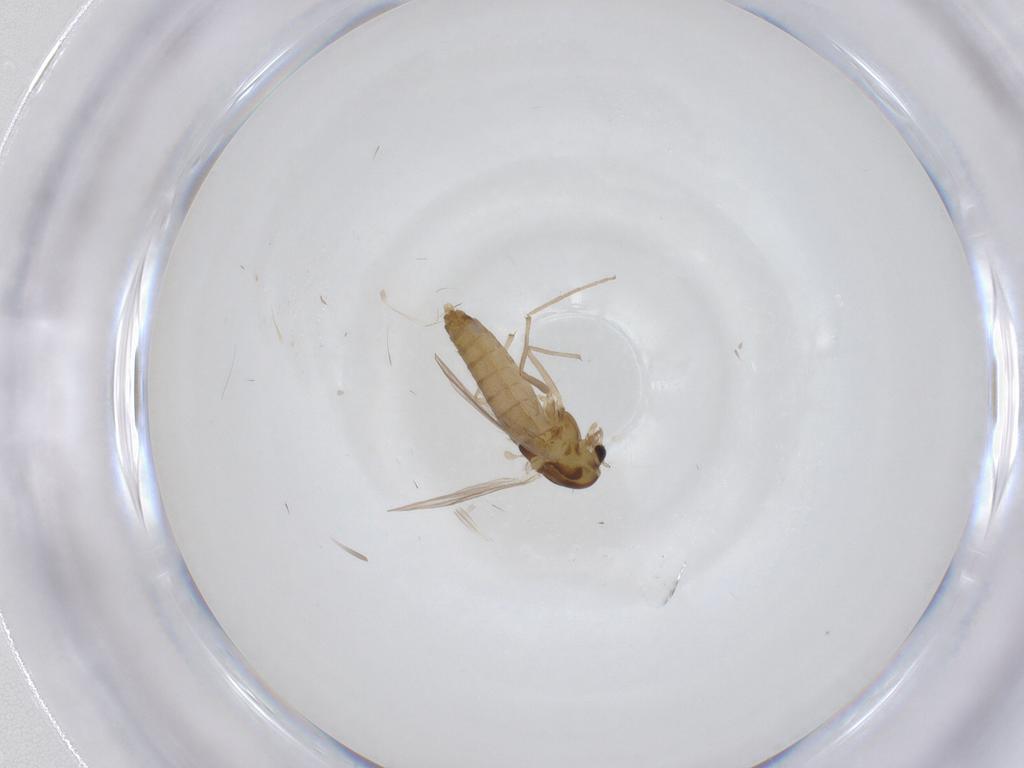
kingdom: Animalia
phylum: Arthropoda
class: Insecta
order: Diptera
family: Chironomidae
